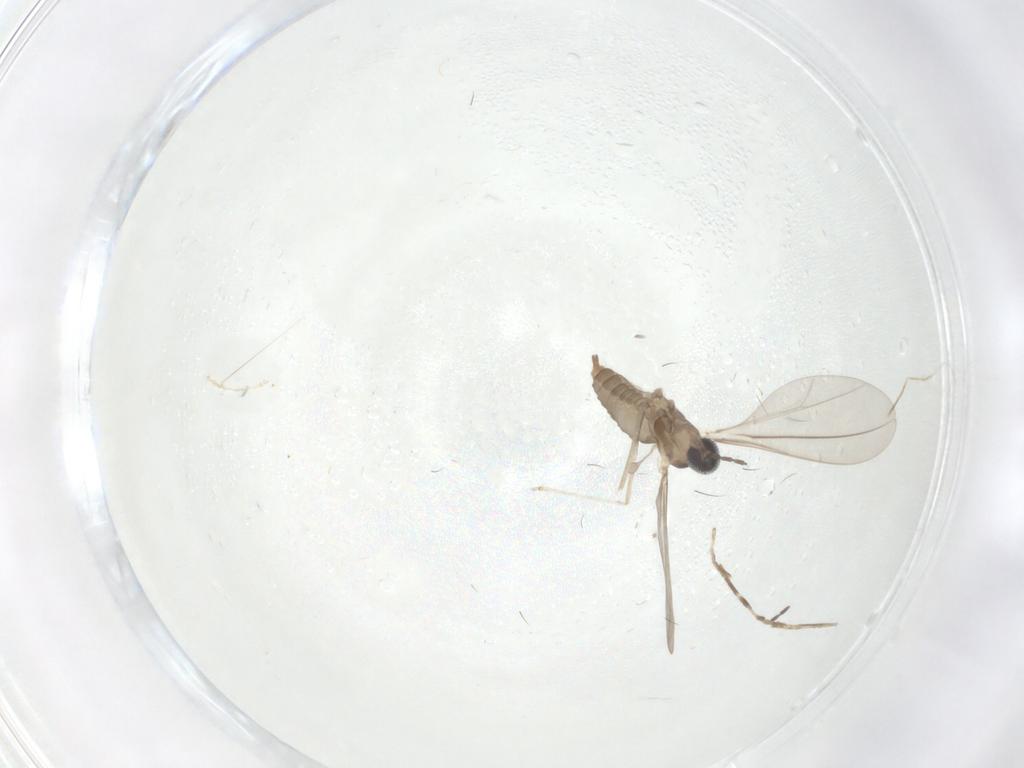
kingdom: Animalia
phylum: Arthropoda
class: Insecta
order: Diptera
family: Cecidomyiidae
